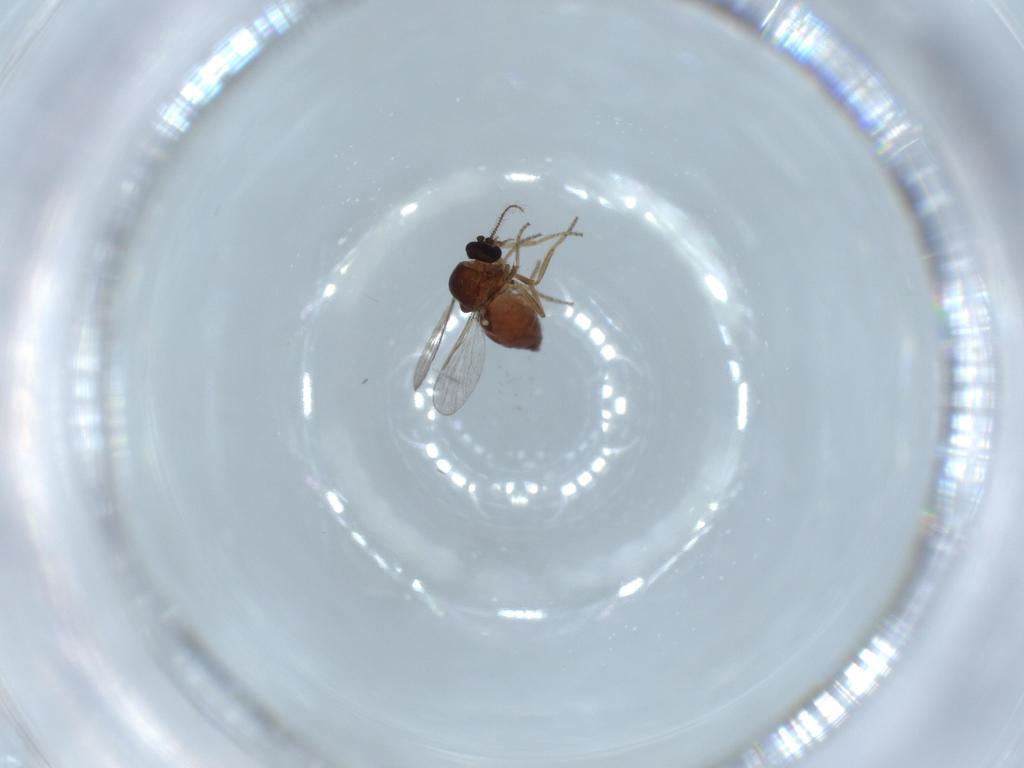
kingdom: Animalia
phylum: Arthropoda
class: Insecta
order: Diptera
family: Ceratopogonidae
